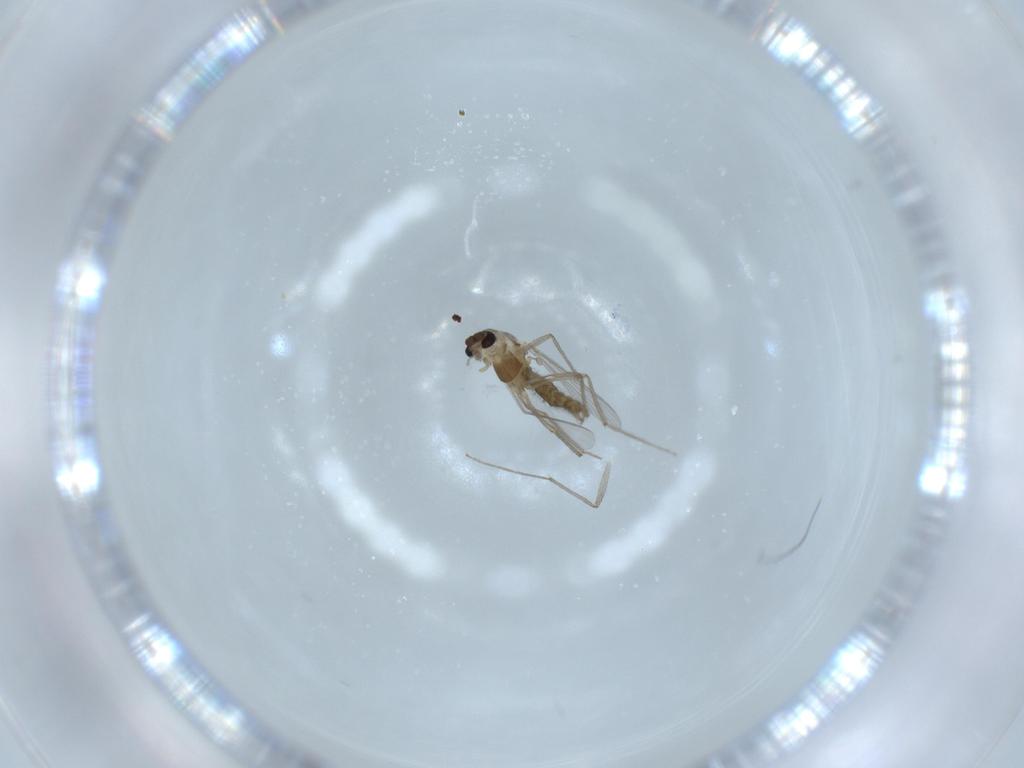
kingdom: Animalia
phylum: Arthropoda
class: Insecta
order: Diptera
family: Chironomidae
